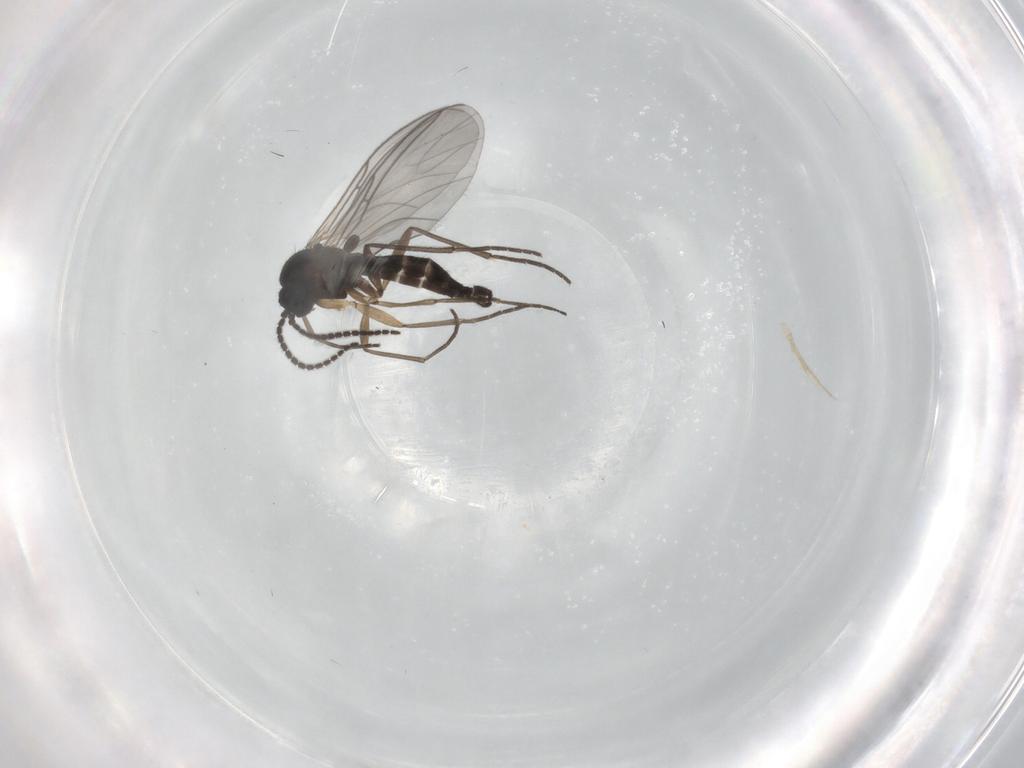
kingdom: Animalia
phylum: Arthropoda
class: Insecta
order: Diptera
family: Sciaridae
